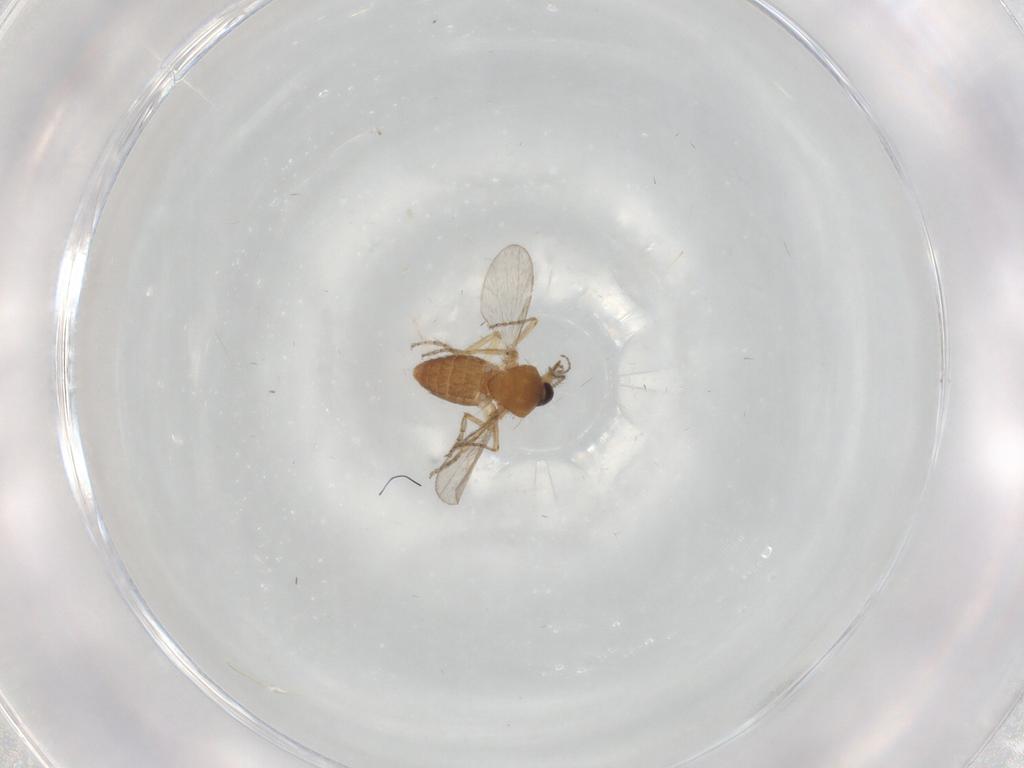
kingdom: Animalia
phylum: Arthropoda
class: Insecta
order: Diptera
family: Ceratopogonidae
